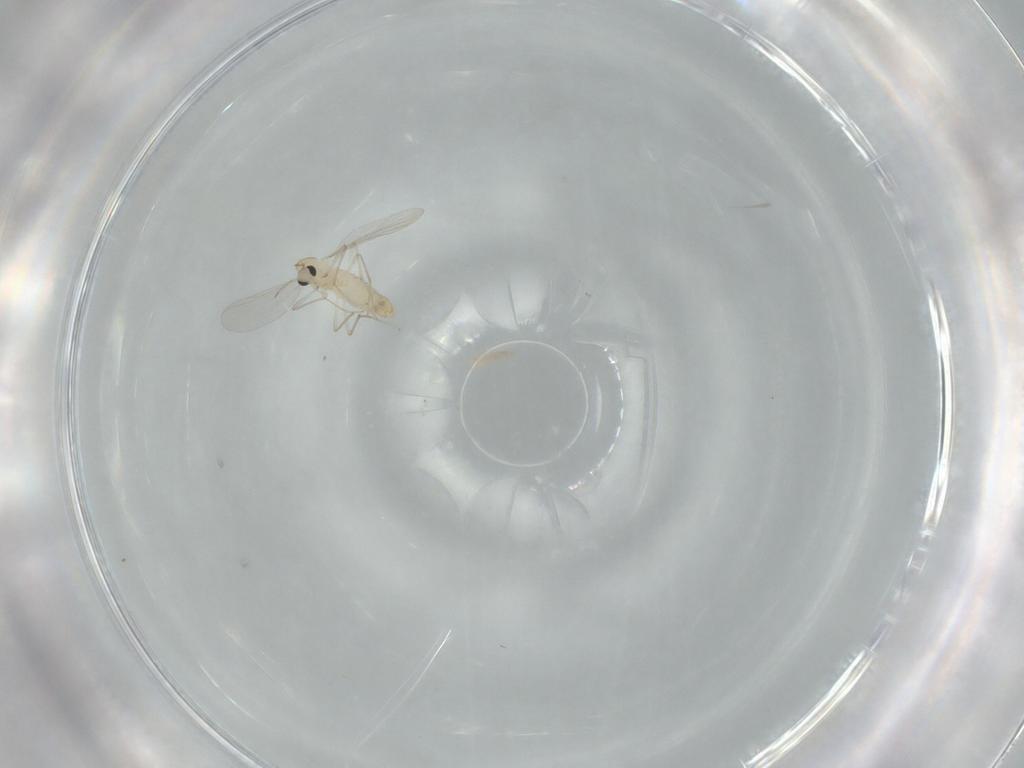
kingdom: Animalia
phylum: Arthropoda
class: Insecta
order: Diptera
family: Chironomidae
